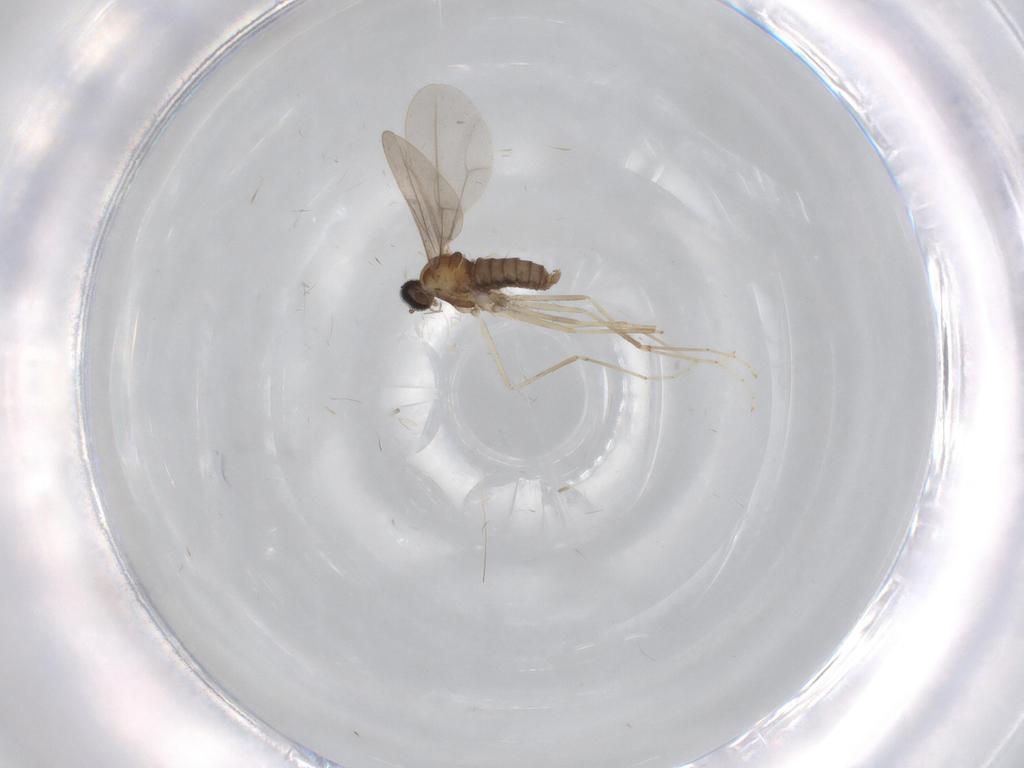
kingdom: Animalia
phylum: Arthropoda
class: Insecta
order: Diptera
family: Cecidomyiidae
